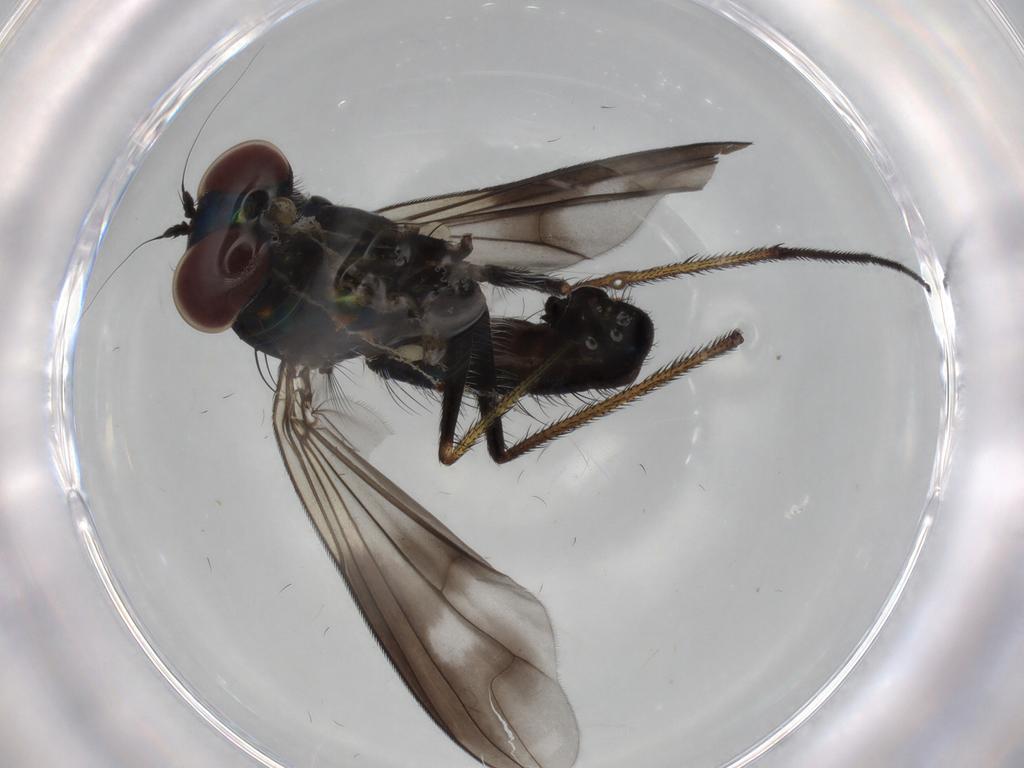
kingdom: Animalia
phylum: Arthropoda
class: Insecta
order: Diptera
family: Dolichopodidae
